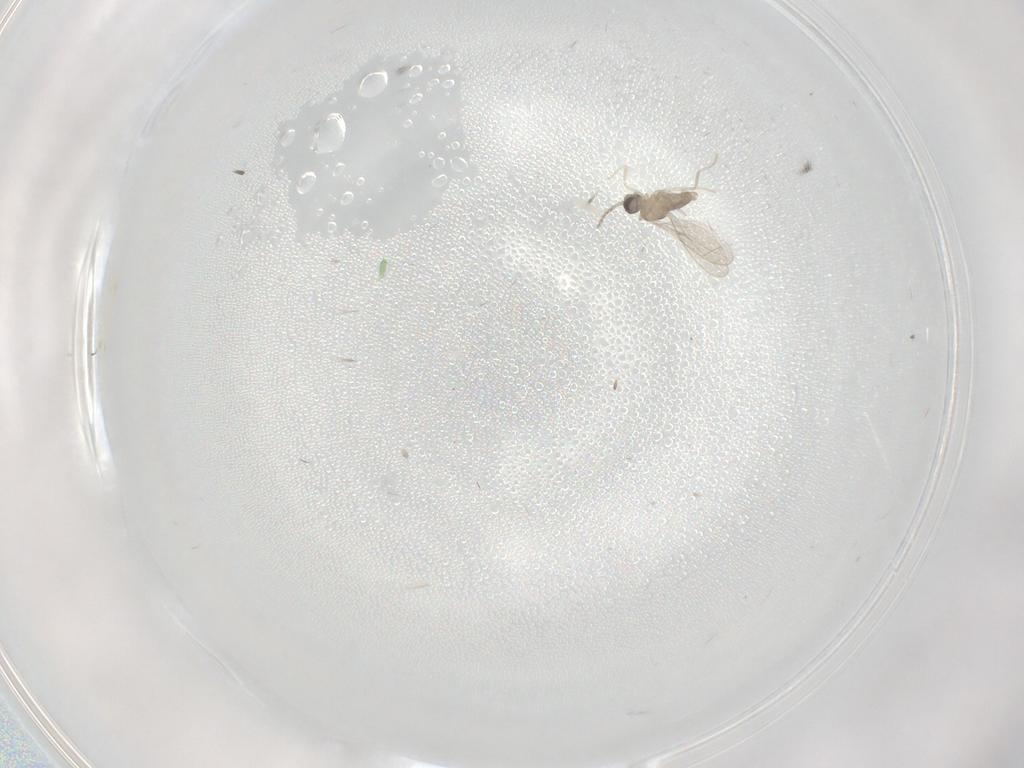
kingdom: Animalia
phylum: Arthropoda
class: Insecta
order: Diptera
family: Cecidomyiidae
